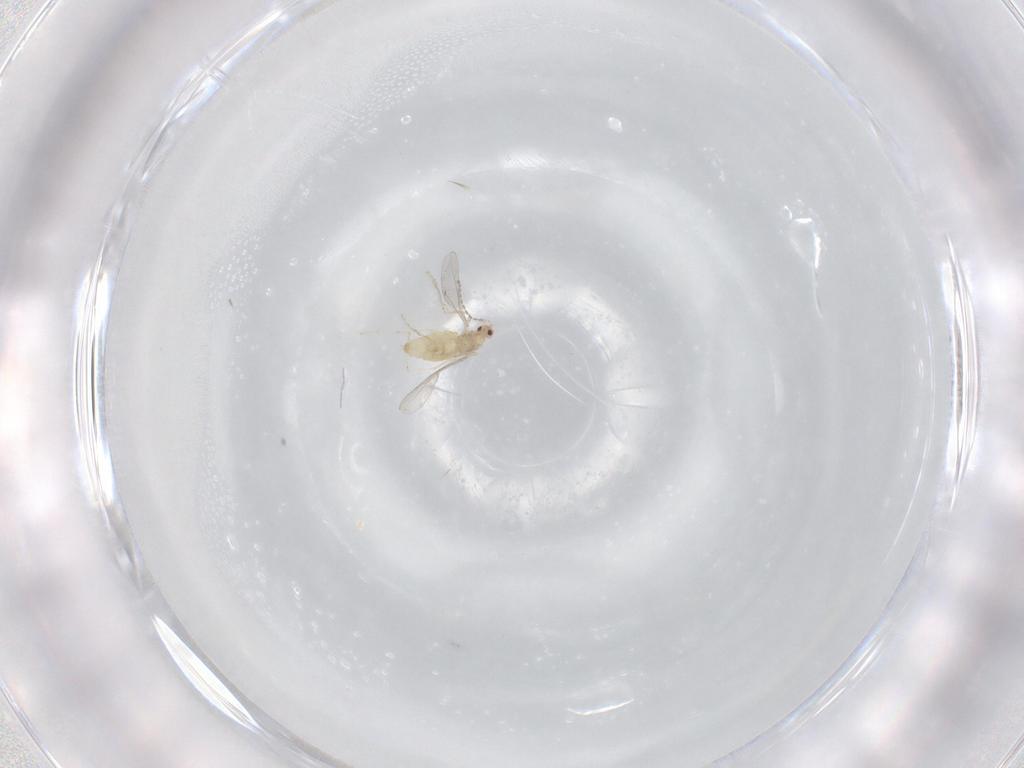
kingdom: Animalia
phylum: Arthropoda
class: Insecta
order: Diptera
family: Cecidomyiidae
